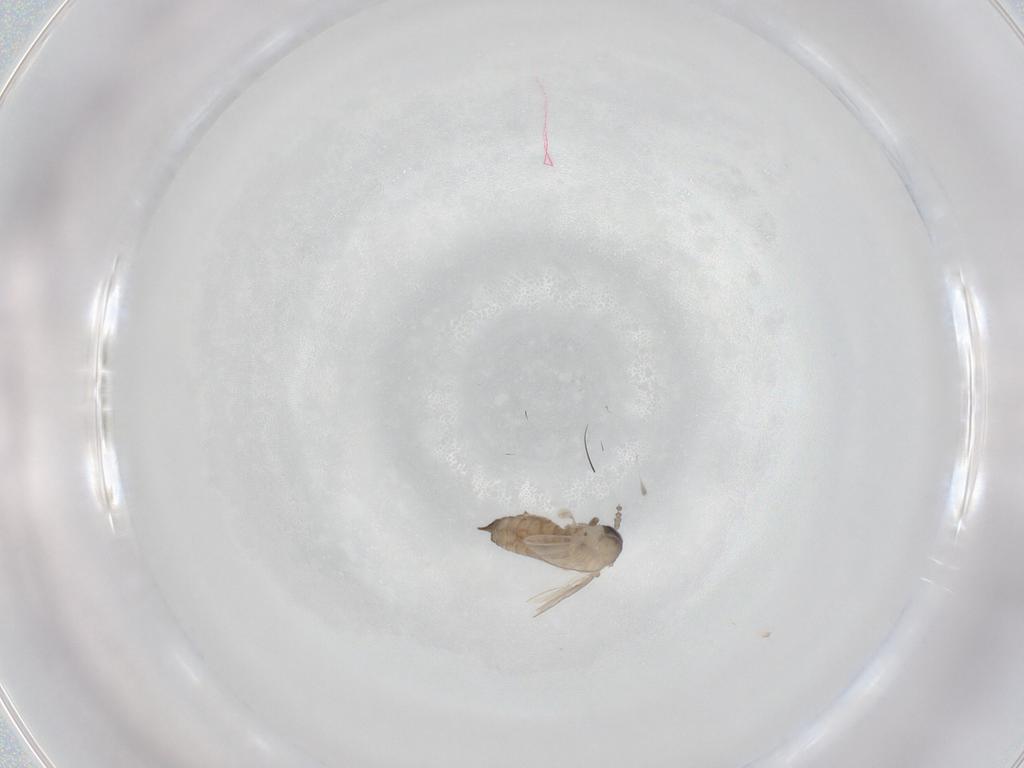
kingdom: Animalia
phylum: Arthropoda
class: Insecta
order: Diptera
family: Psychodidae
